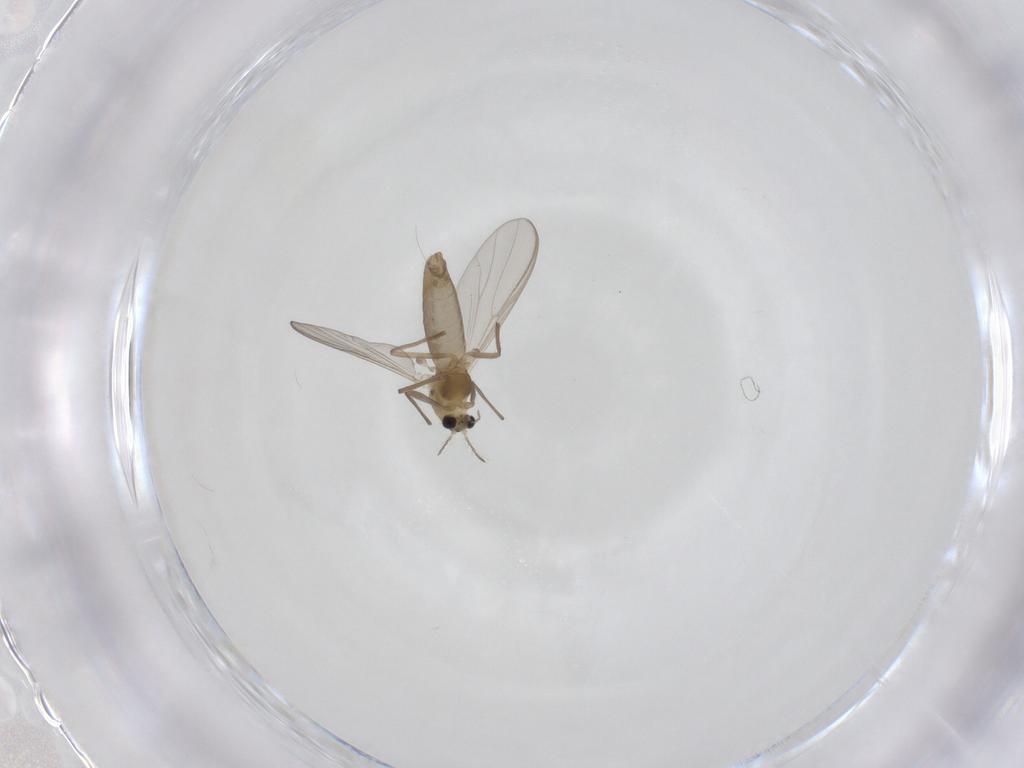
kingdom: Animalia
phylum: Arthropoda
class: Insecta
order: Diptera
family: Chironomidae
